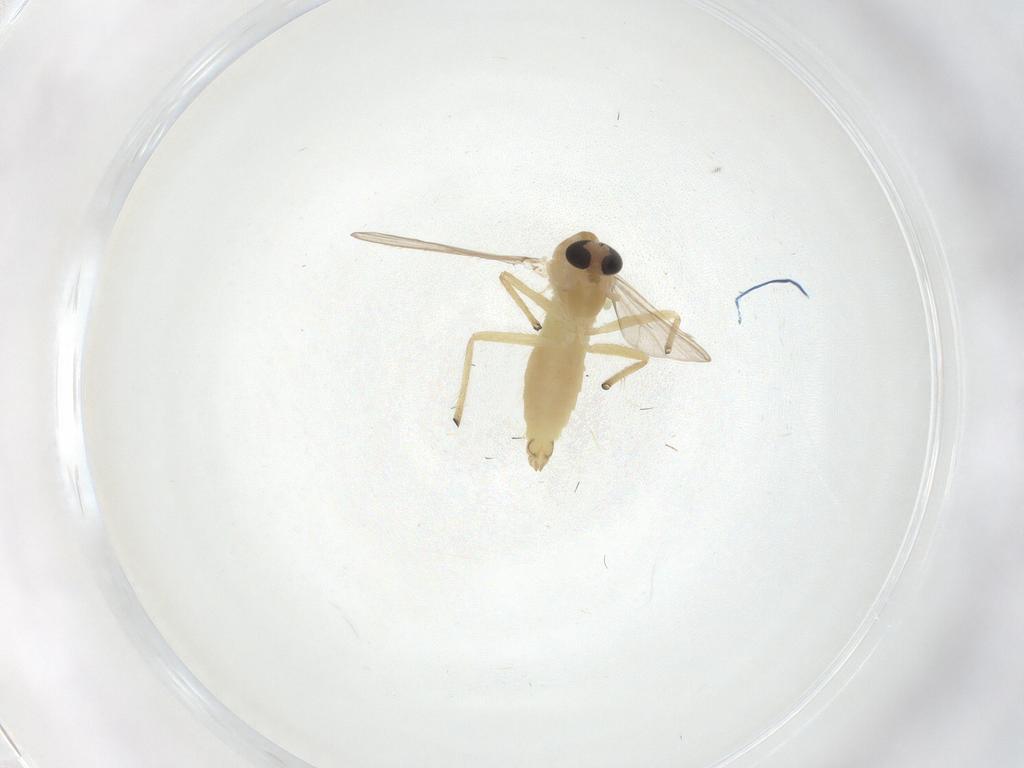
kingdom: Animalia
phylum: Arthropoda
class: Insecta
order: Diptera
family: Chironomidae
